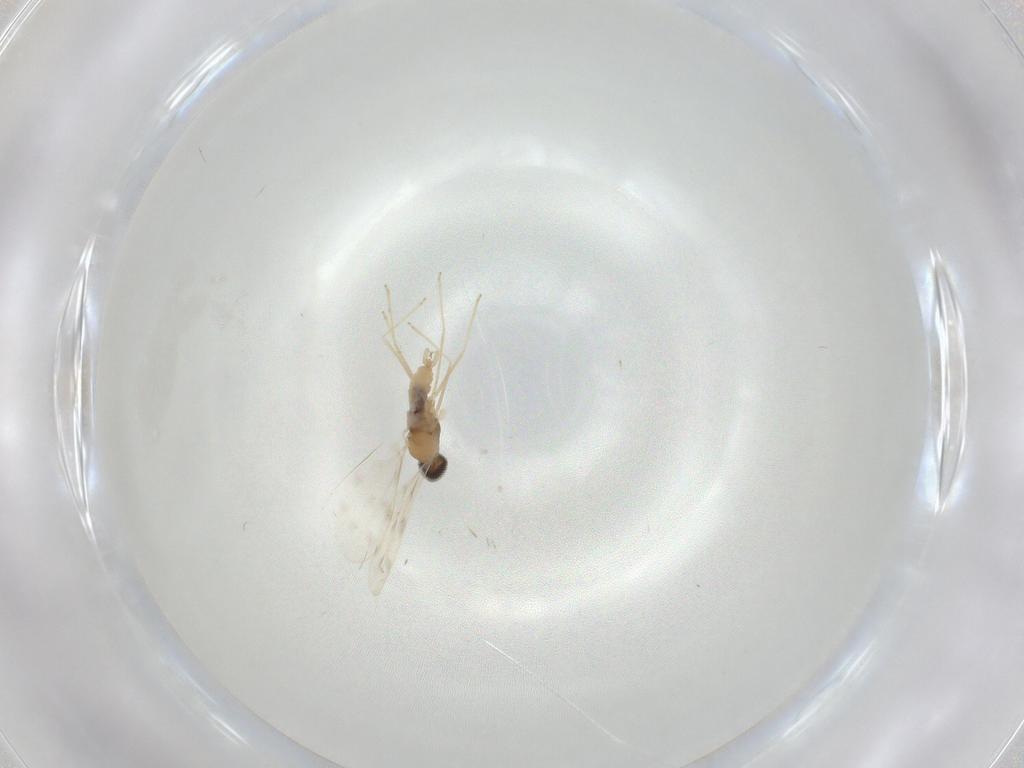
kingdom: Animalia
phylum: Arthropoda
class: Insecta
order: Diptera
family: Cecidomyiidae
